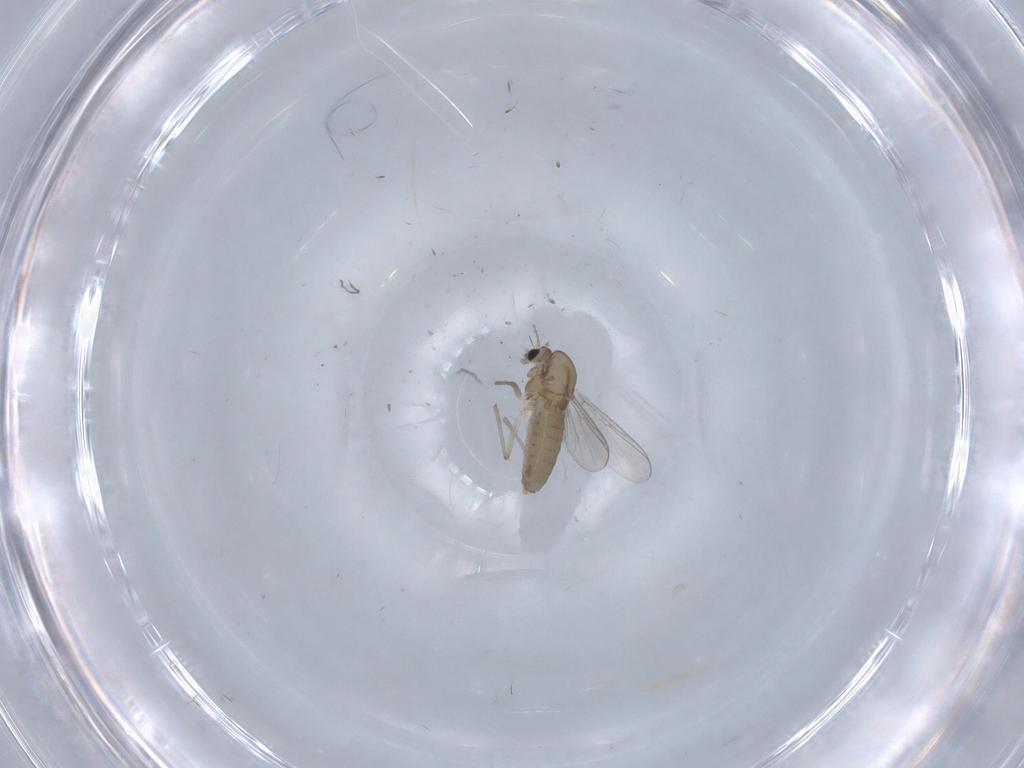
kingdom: Animalia
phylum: Arthropoda
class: Insecta
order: Diptera
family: Chironomidae
